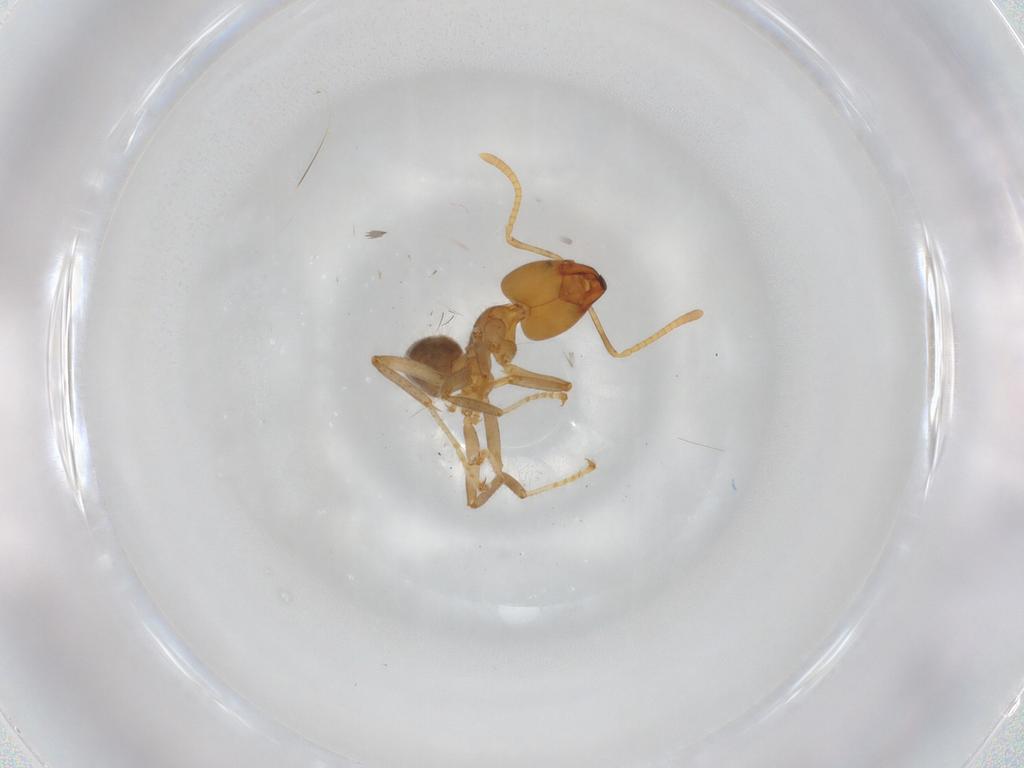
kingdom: Animalia
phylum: Arthropoda
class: Insecta
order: Hymenoptera
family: Formicidae
